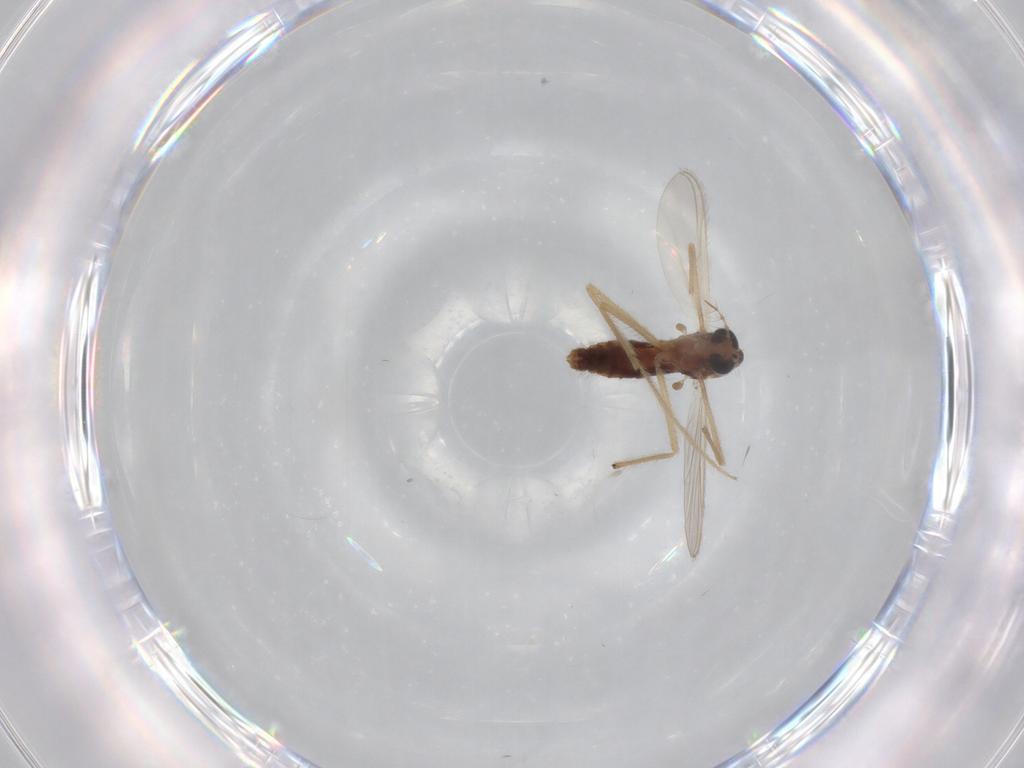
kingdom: Animalia
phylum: Arthropoda
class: Insecta
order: Diptera
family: Chironomidae
